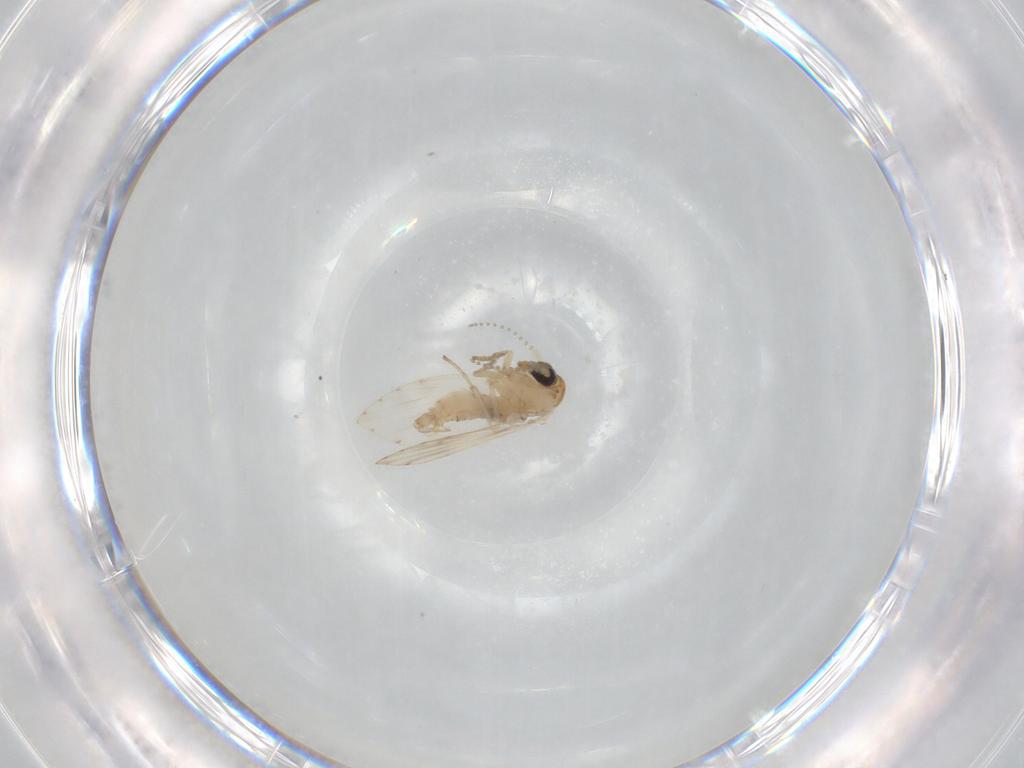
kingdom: Animalia
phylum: Arthropoda
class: Insecta
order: Diptera
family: Psychodidae
